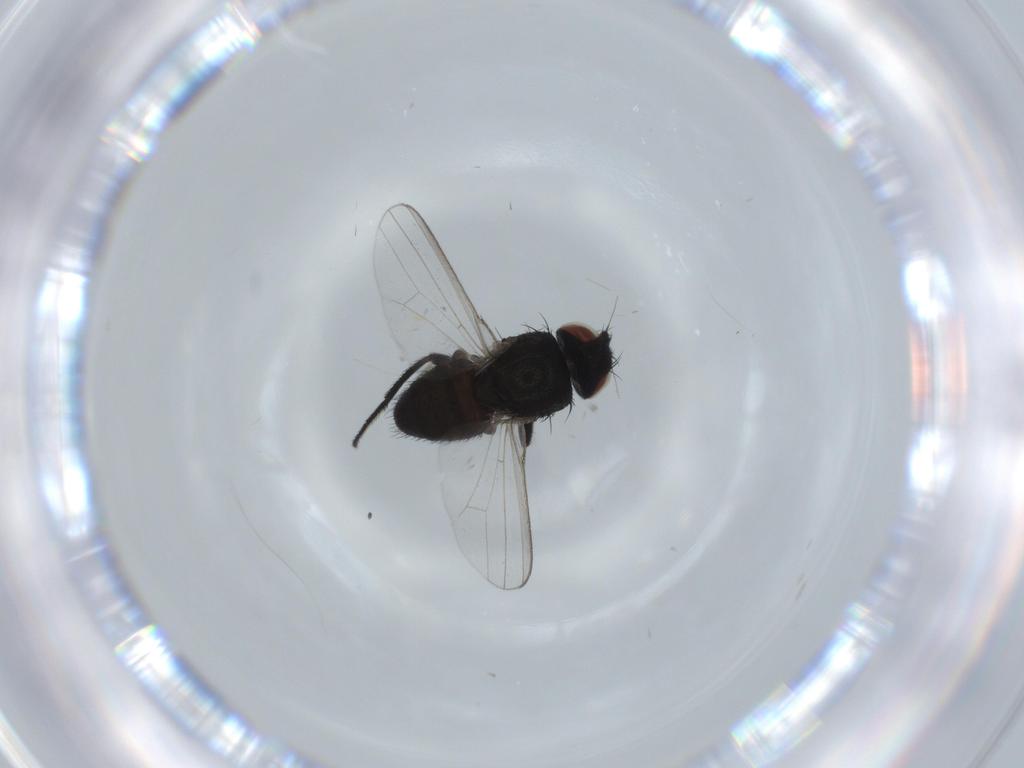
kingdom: Animalia
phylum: Arthropoda
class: Insecta
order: Diptera
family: Milichiidae
